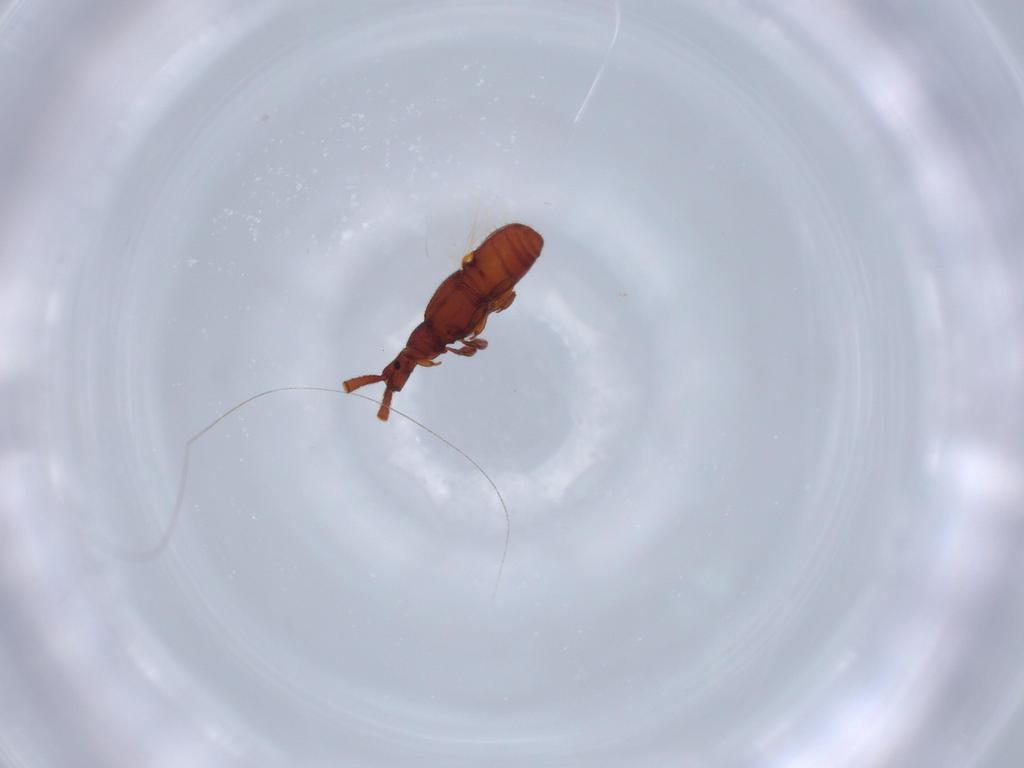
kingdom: Animalia
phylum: Arthropoda
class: Insecta
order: Coleoptera
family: Staphylinidae
